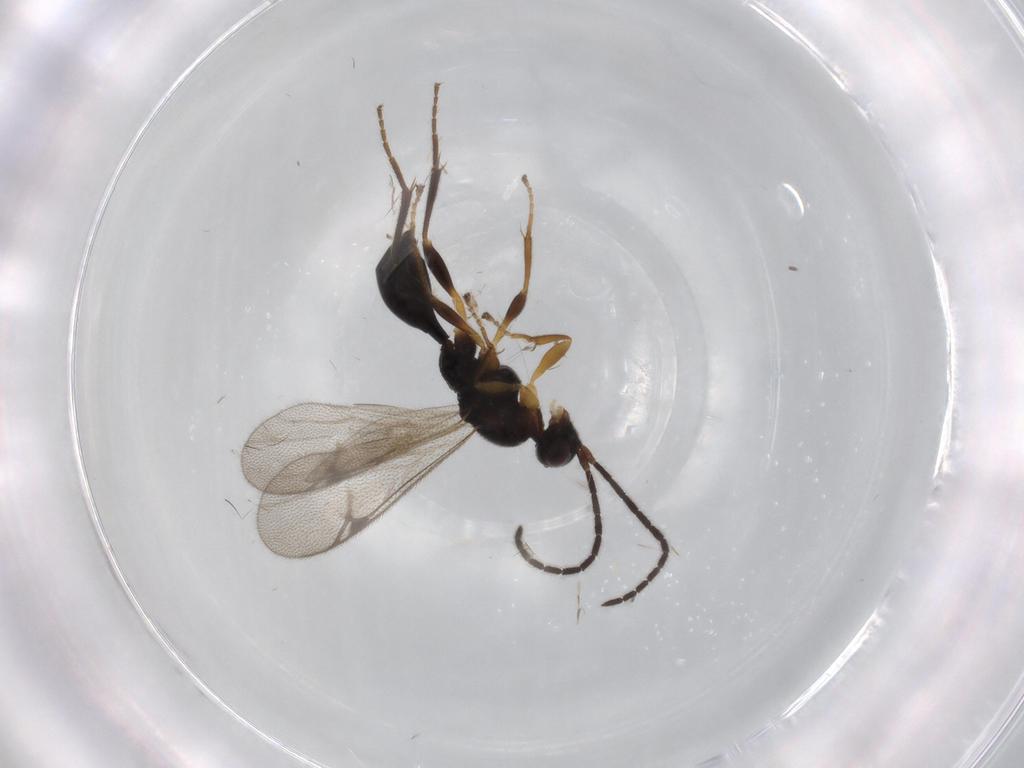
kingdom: Animalia
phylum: Arthropoda
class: Insecta
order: Hymenoptera
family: Proctotrupidae
